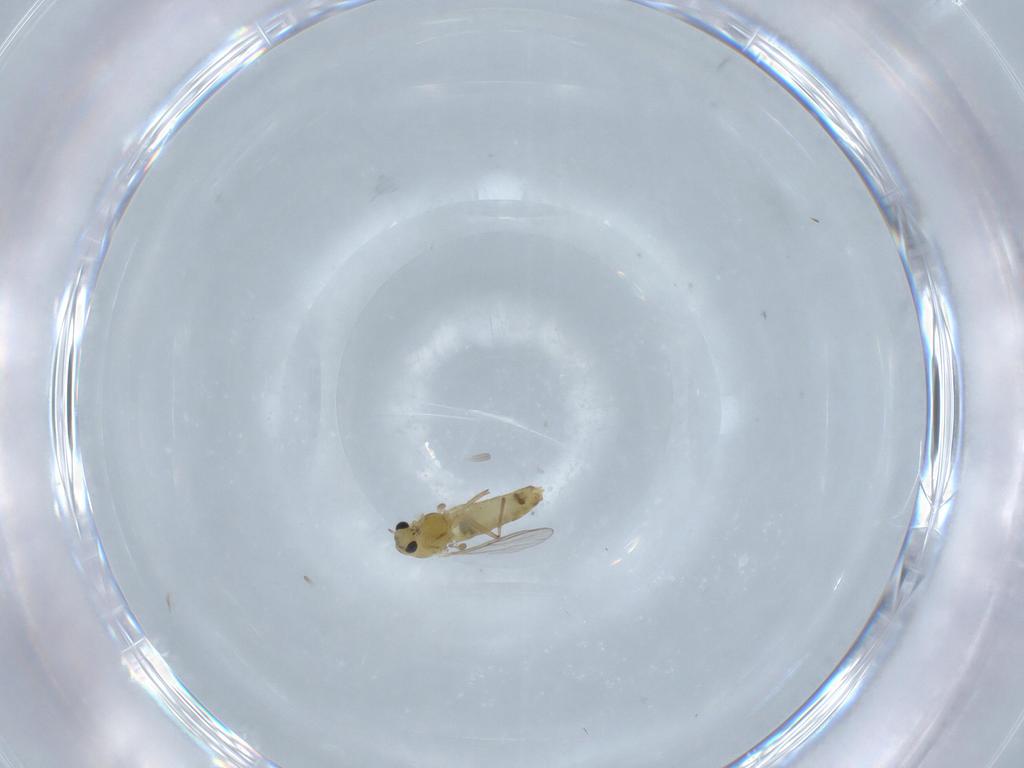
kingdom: Animalia
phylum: Arthropoda
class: Insecta
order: Diptera
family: Chironomidae
